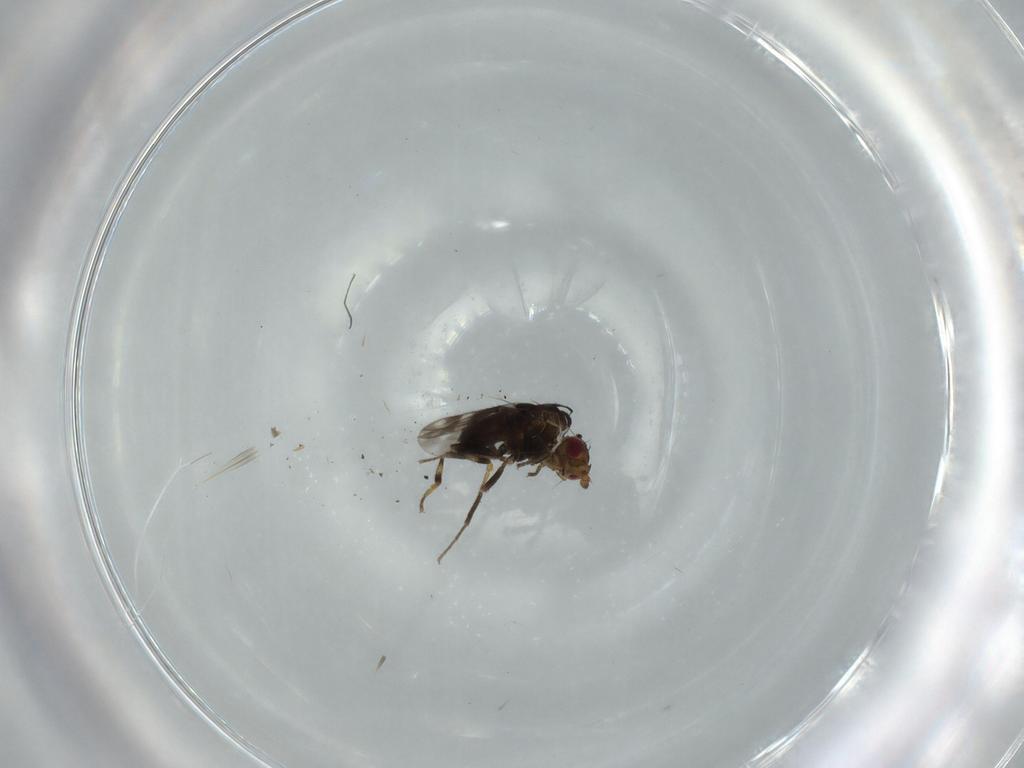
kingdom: Animalia
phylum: Arthropoda
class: Insecta
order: Diptera
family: Sphaeroceridae
